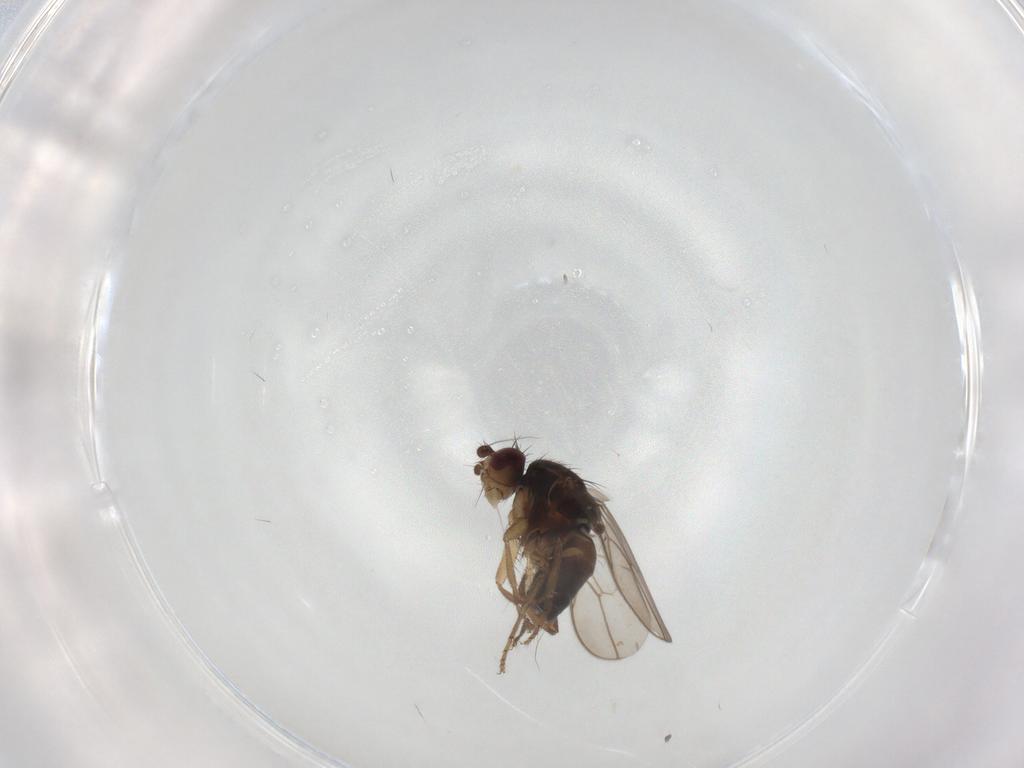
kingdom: Animalia
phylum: Arthropoda
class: Insecta
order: Diptera
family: Sphaeroceridae
